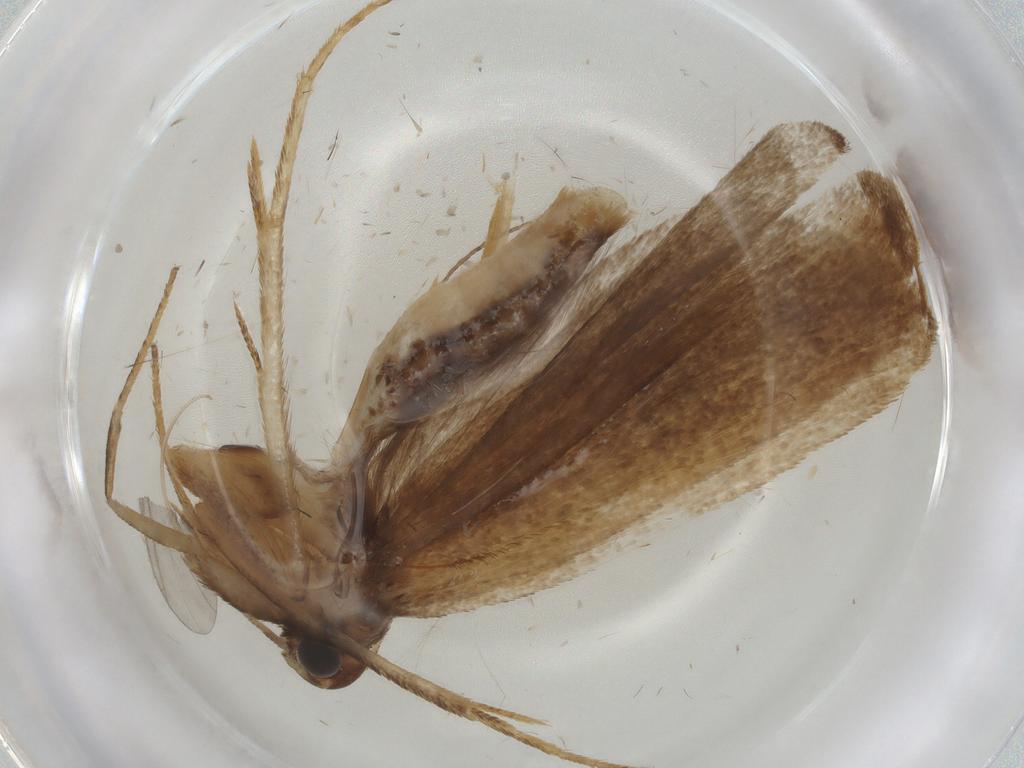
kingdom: Animalia
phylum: Arthropoda
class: Insecta
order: Lepidoptera
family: Gelechiidae
